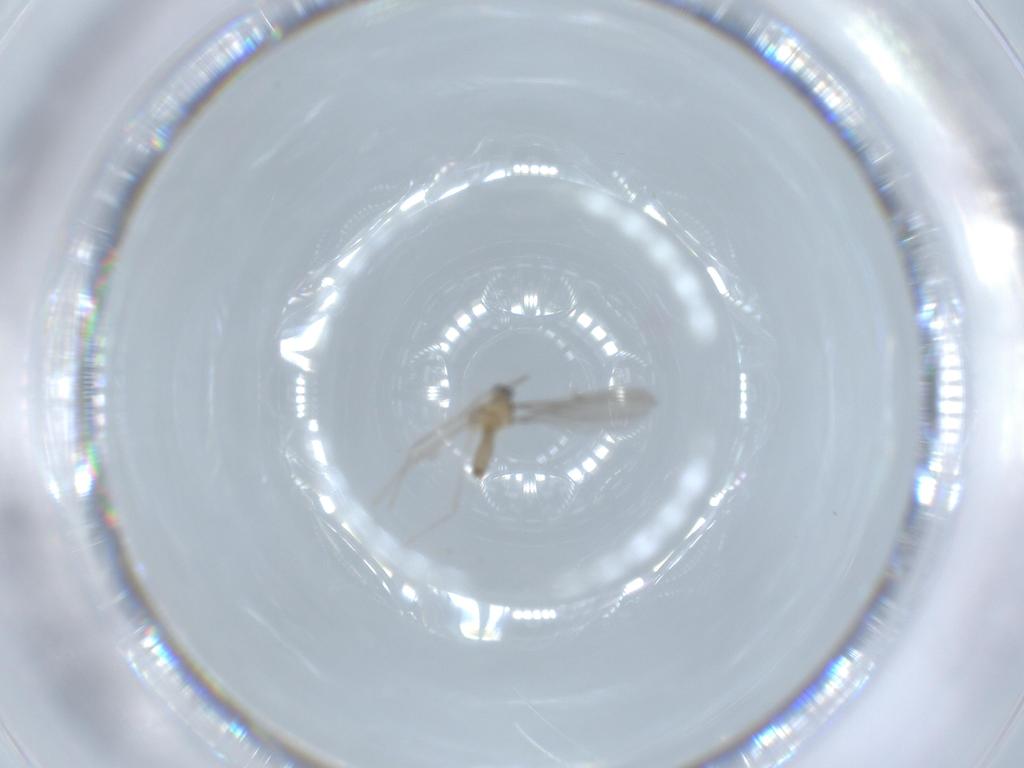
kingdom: Animalia
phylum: Arthropoda
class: Insecta
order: Diptera
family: Cecidomyiidae
